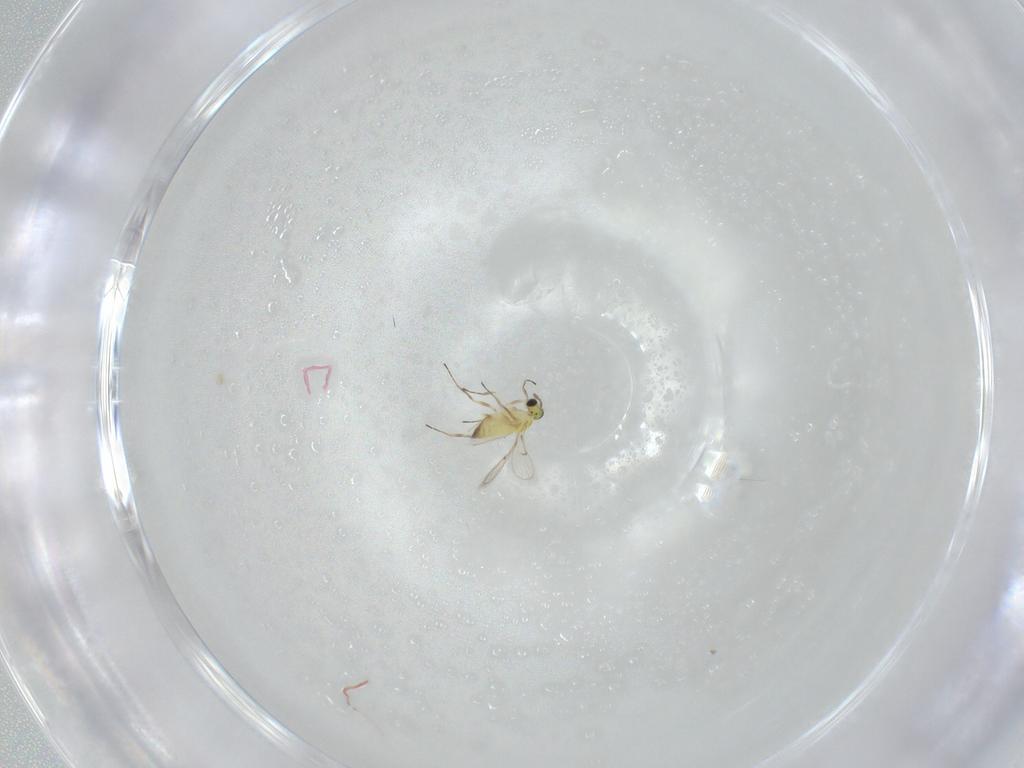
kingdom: Animalia
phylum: Arthropoda
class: Insecta
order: Hymenoptera
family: Trichogrammatidae
